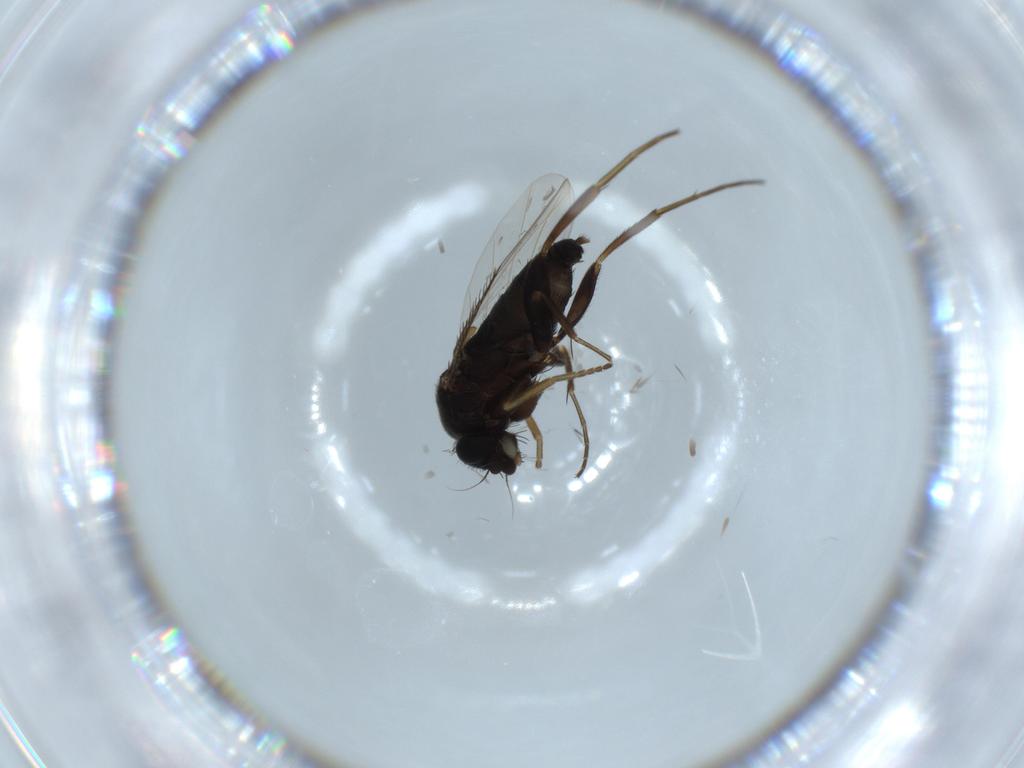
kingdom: Animalia
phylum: Arthropoda
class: Insecta
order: Diptera
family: Phoridae
